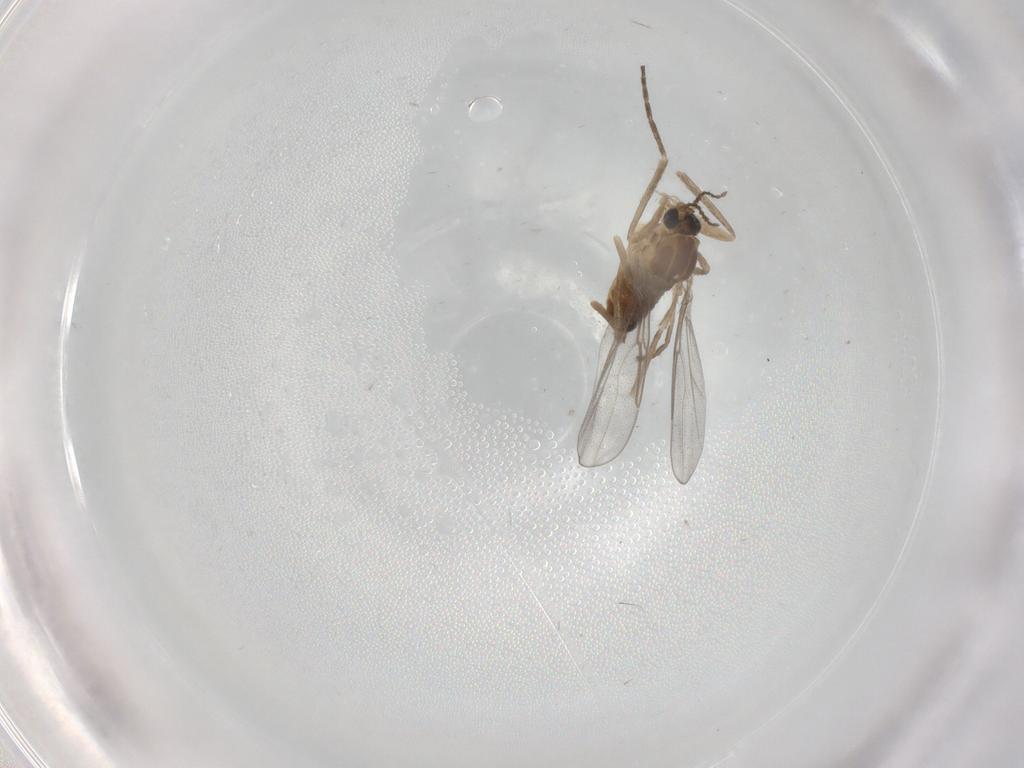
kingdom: Animalia
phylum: Arthropoda
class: Insecta
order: Diptera
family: Cecidomyiidae
